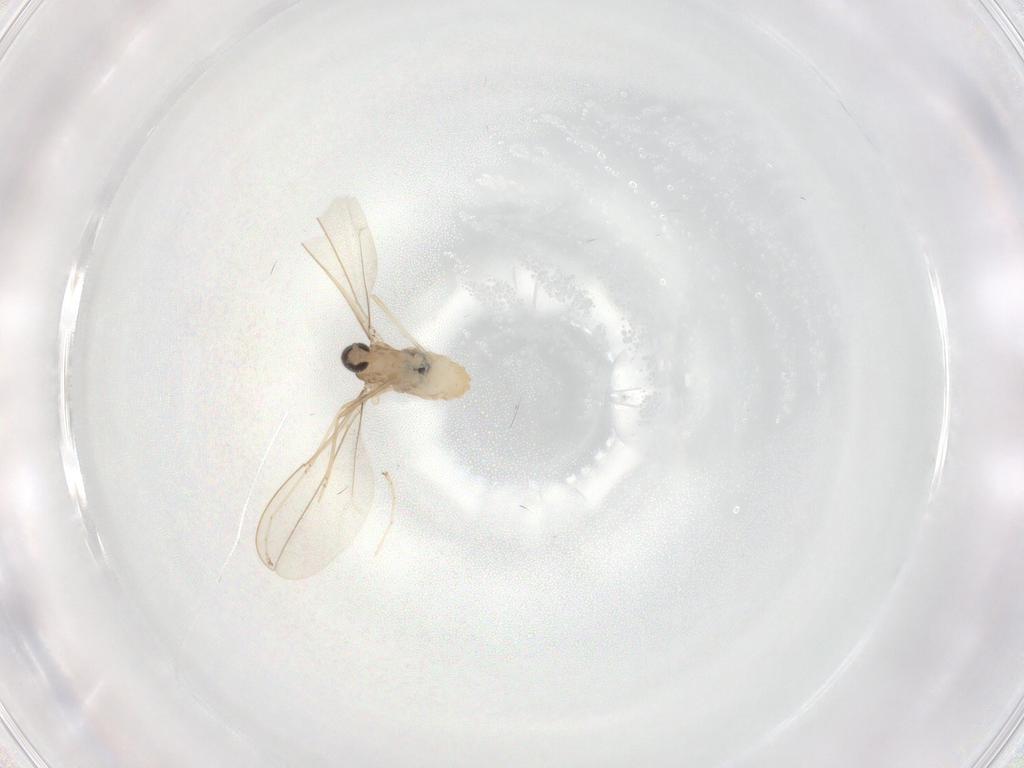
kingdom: Animalia
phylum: Arthropoda
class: Insecta
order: Diptera
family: Cecidomyiidae
